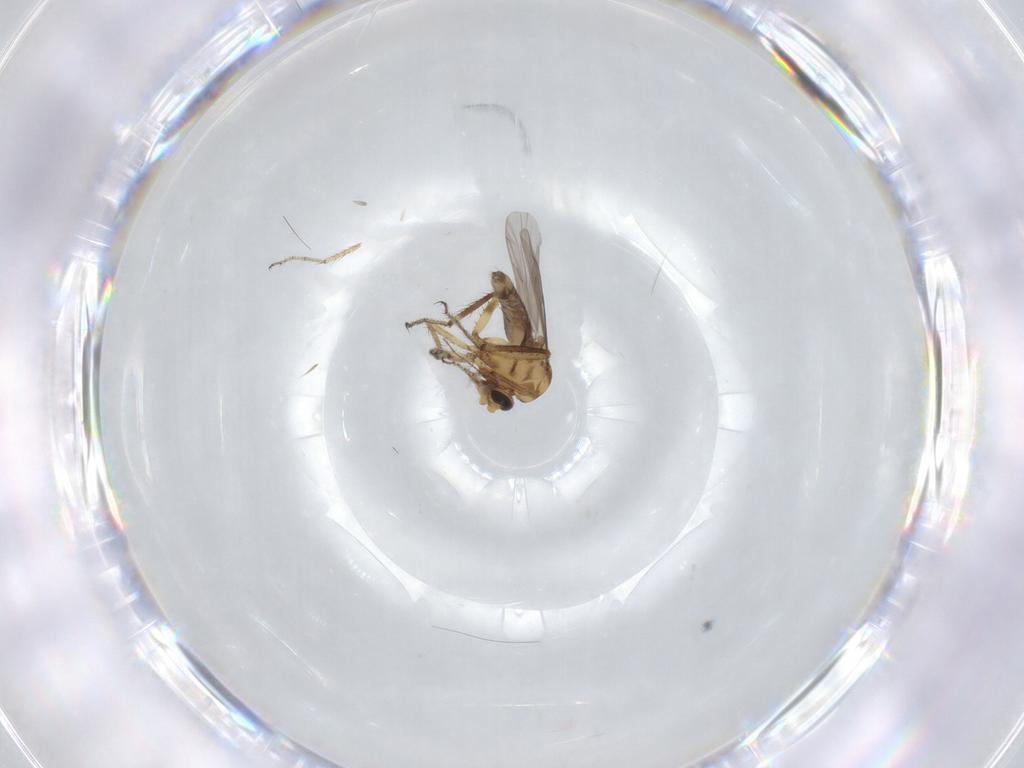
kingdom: Animalia
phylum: Arthropoda
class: Insecta
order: Diptera
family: Ceratopogonidae
